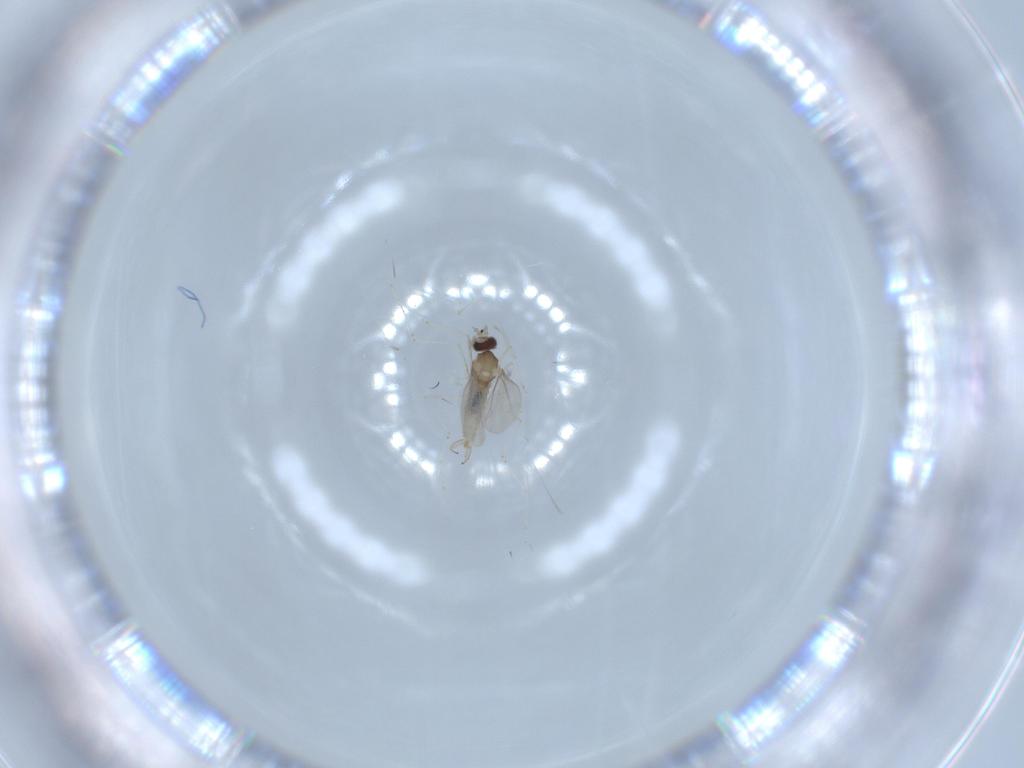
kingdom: Animalia
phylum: Arthropoda
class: Insecta
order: Diptera
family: Cecidomyiidae
